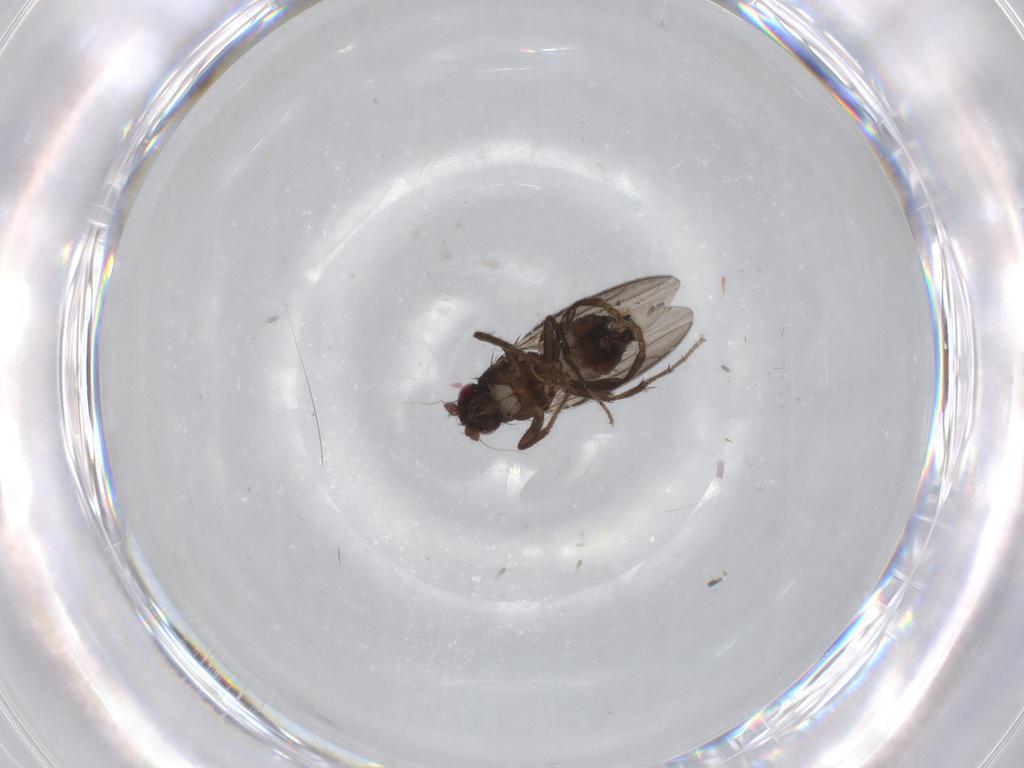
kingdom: Animalia
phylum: Arthropoda
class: Insecta
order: Diptera
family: Sphaeroceridae
